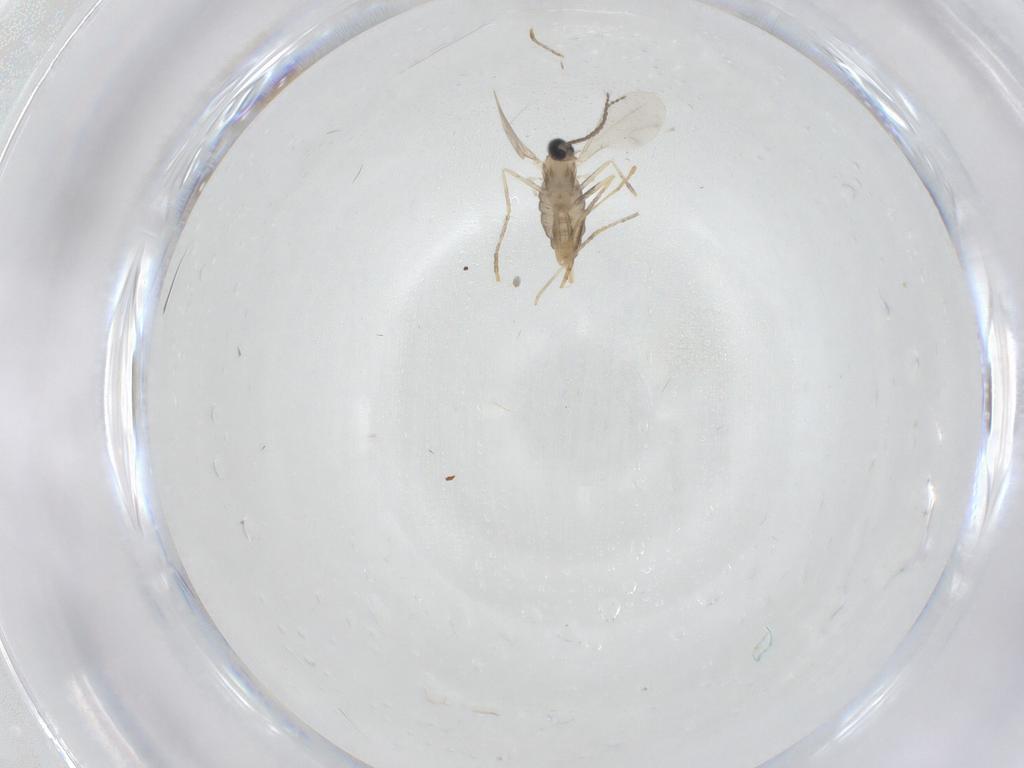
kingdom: Animalia
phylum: Arthropoda
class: Insecta
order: Diptera
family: Cecidomyiidae
